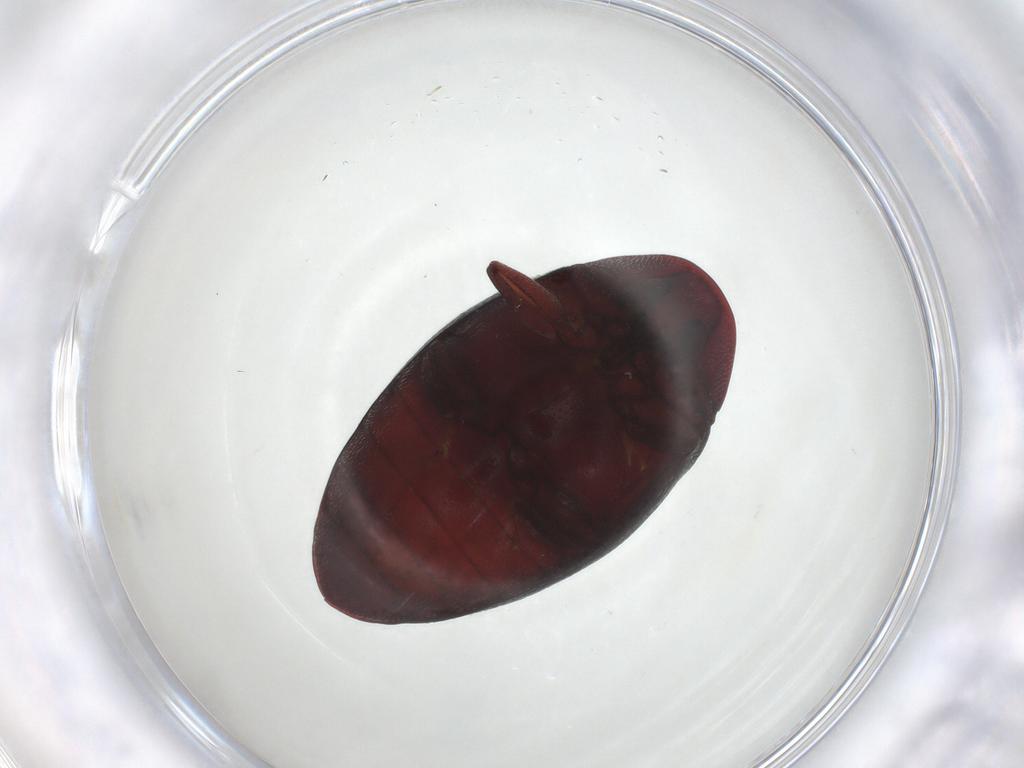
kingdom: Animalia
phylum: Arthropoda
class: Insecta
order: Coleoptera
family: Chelonariidae
